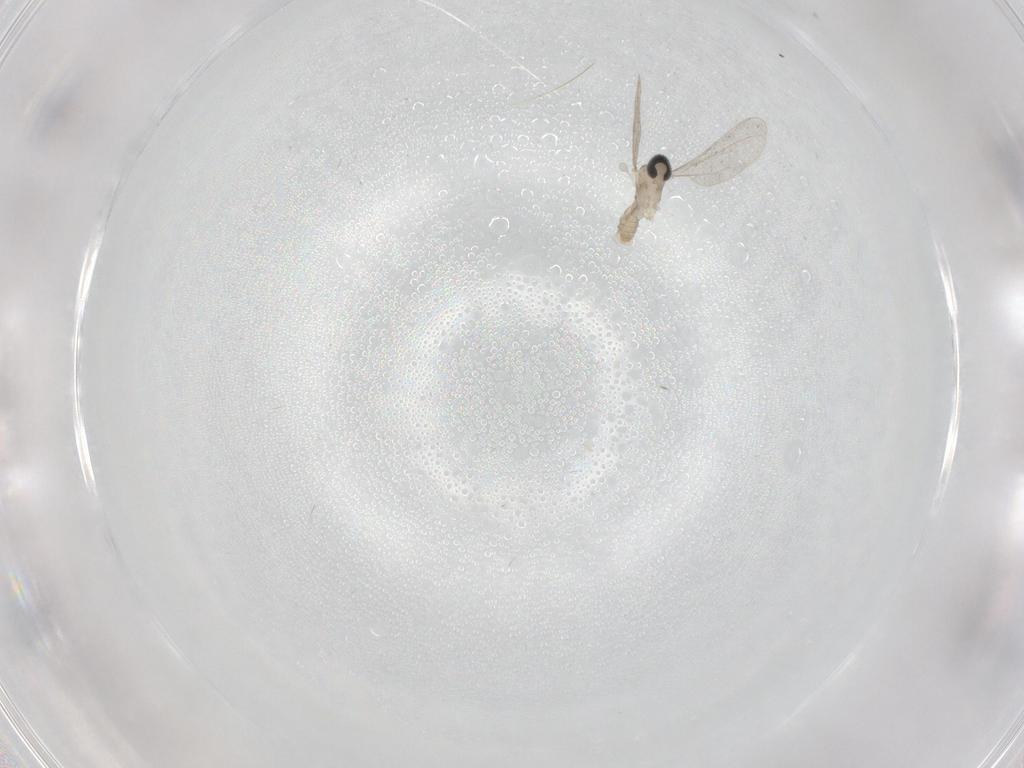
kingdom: Animalia
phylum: Arthropoda
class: Insecta
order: Diptera
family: Cecidomyiidae
